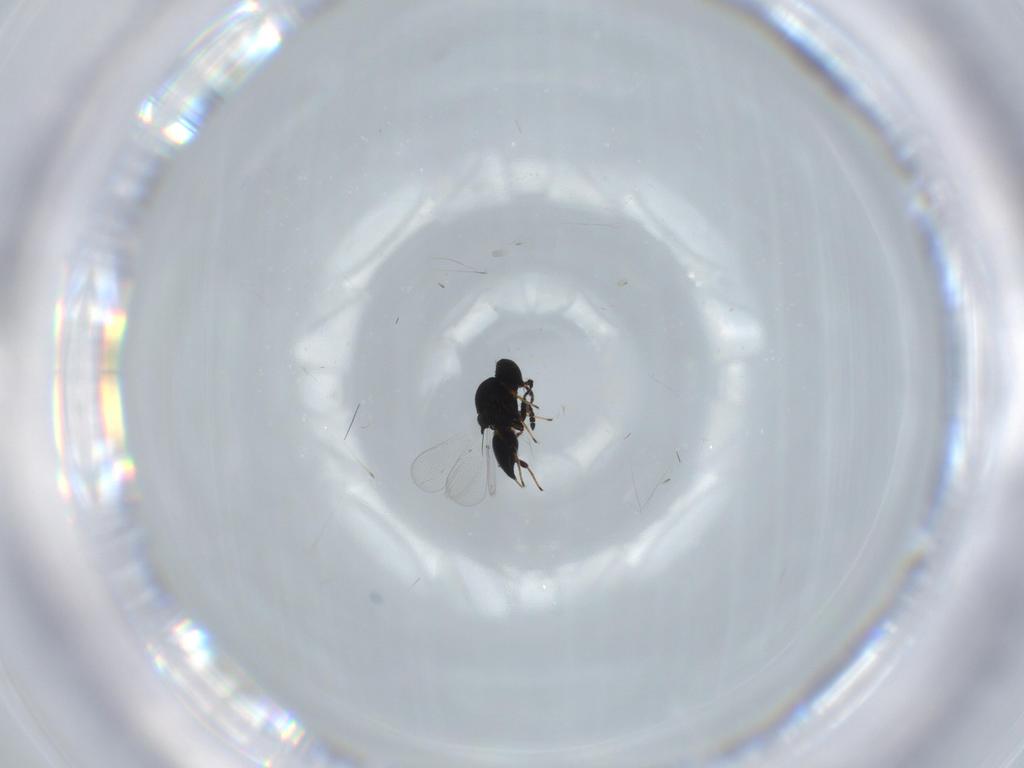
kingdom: Animalia
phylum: Arthropoda
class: Insecta
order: Hymenoptera
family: Platygastridae
